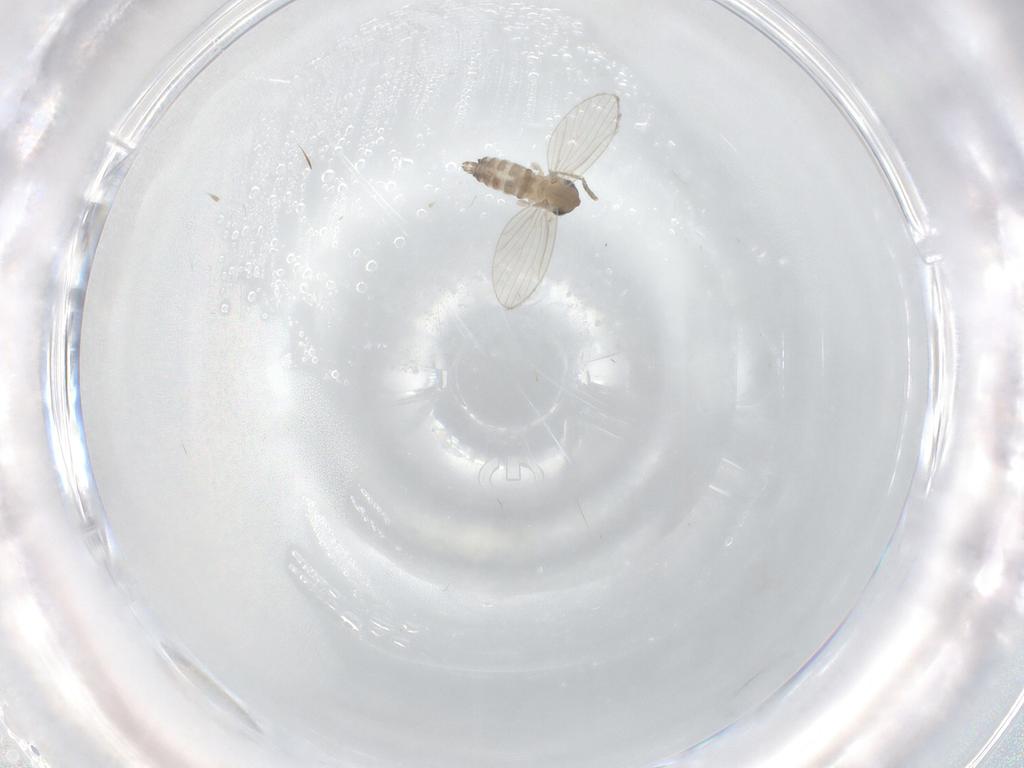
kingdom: Animalia
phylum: Arthropoda
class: Insecta
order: Diptera
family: Psychodidae
